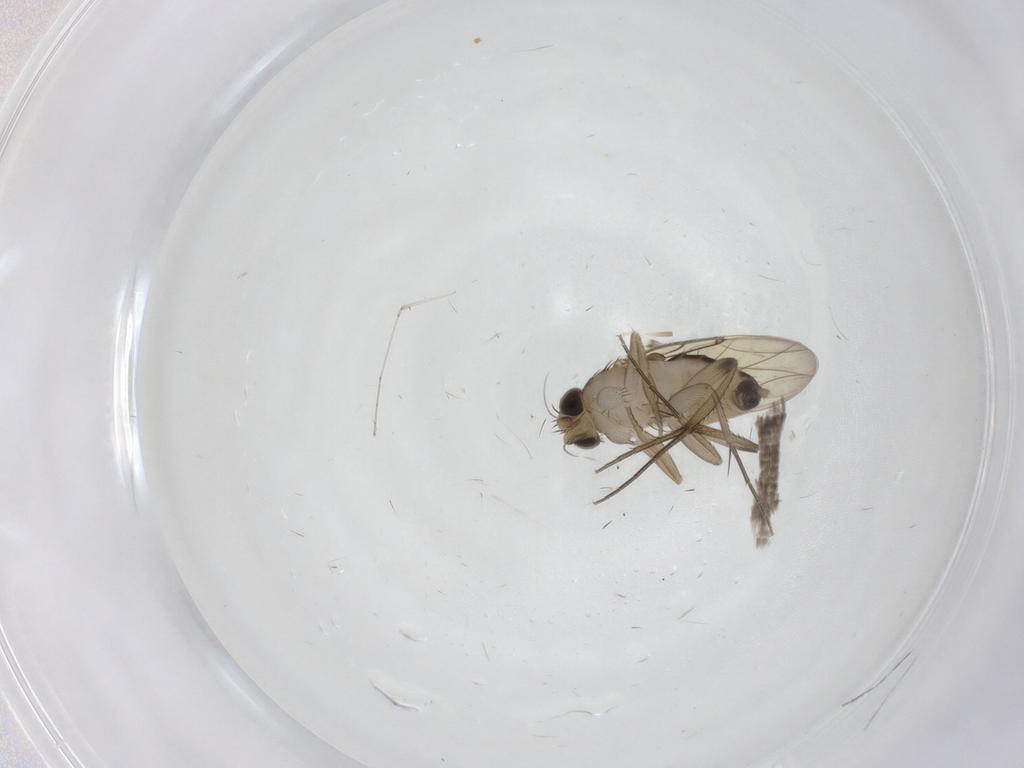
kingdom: Animalia
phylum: Arthropoda
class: Insecta
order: Diptera
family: Phoridae
